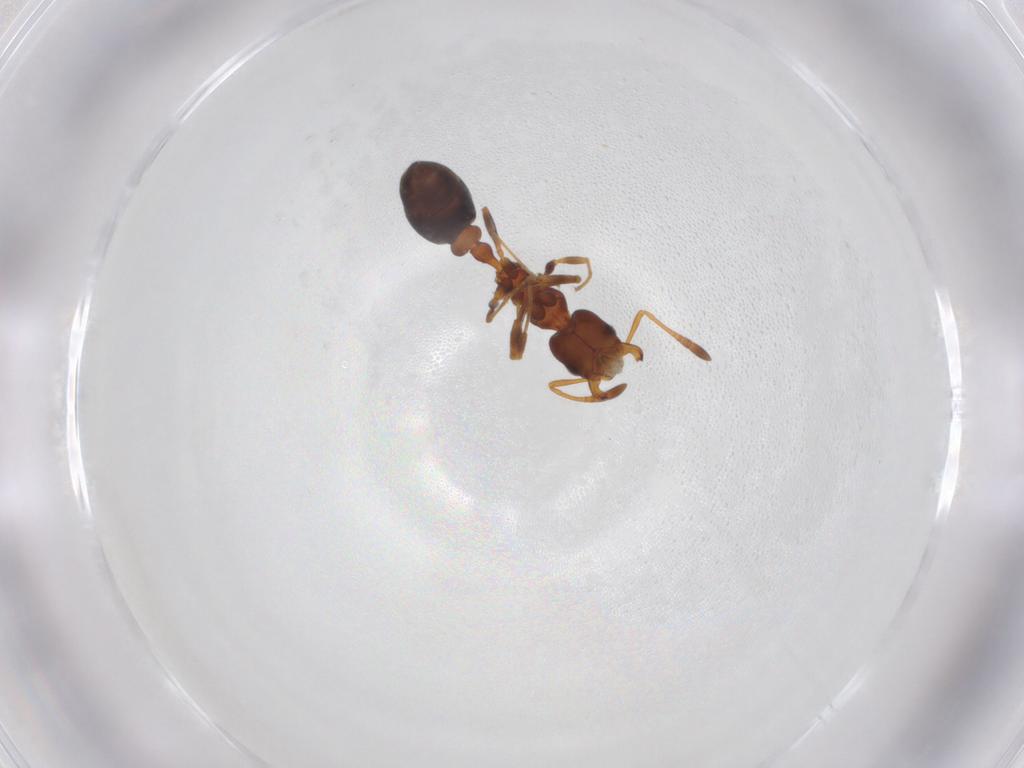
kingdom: Animalia
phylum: Arthropoda
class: Insecta
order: Hymenoptera
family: Formicidae
